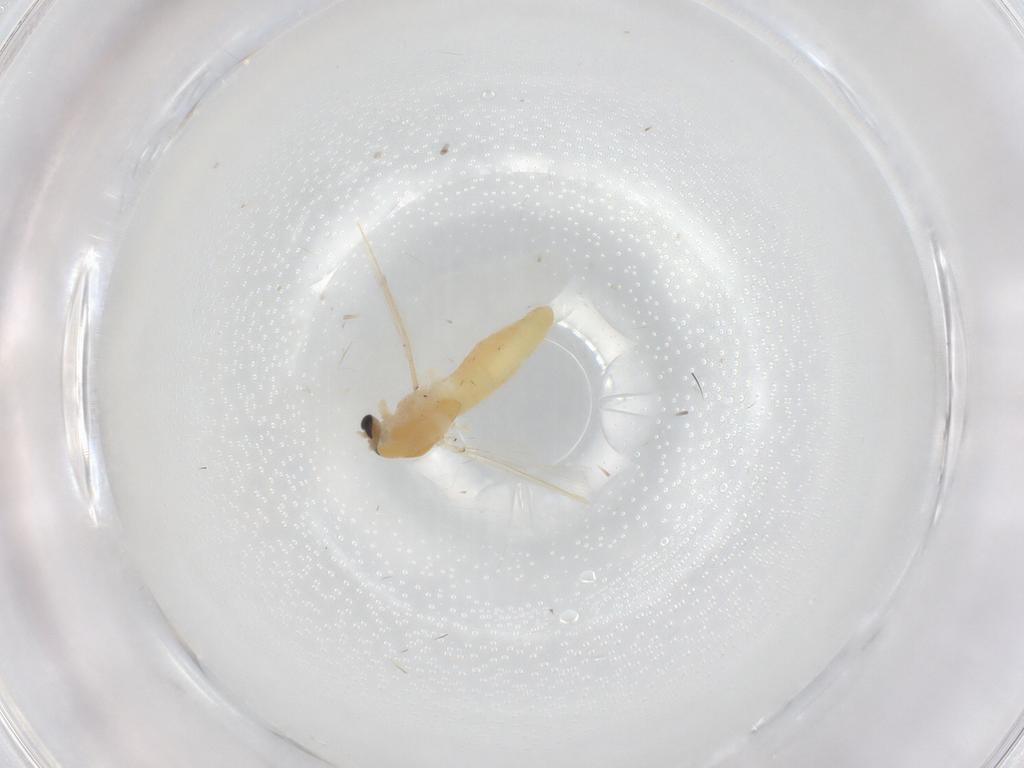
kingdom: Animalia
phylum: Arthropoda
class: Insecta
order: Diptera
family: Chironomidae
